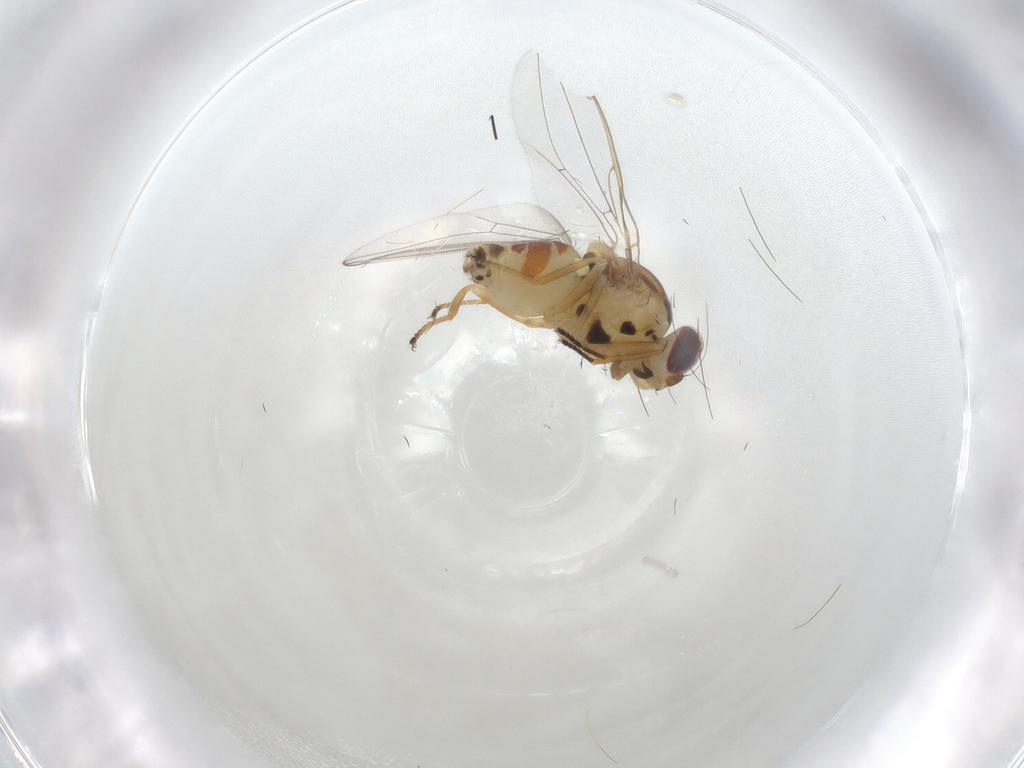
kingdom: Animalia
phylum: Arthropoda
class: Insecta
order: Diptera
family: Asteiidae
